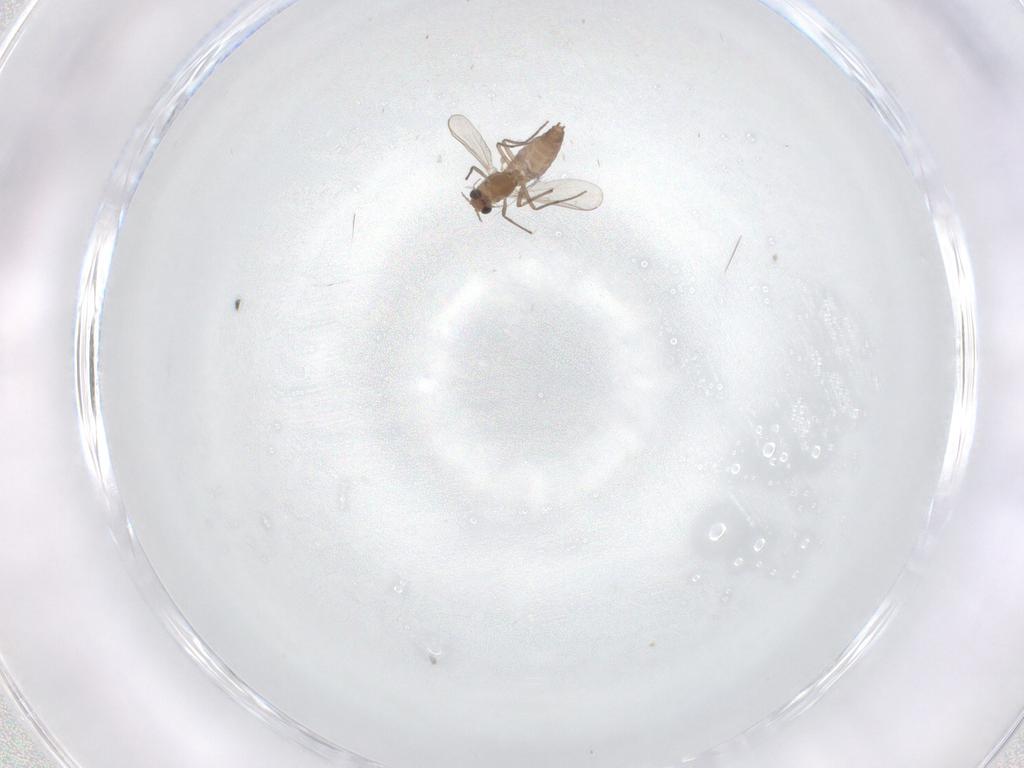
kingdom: Animalia
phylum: Arthropoda
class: Insecta
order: Diptera
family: Chironomidae
